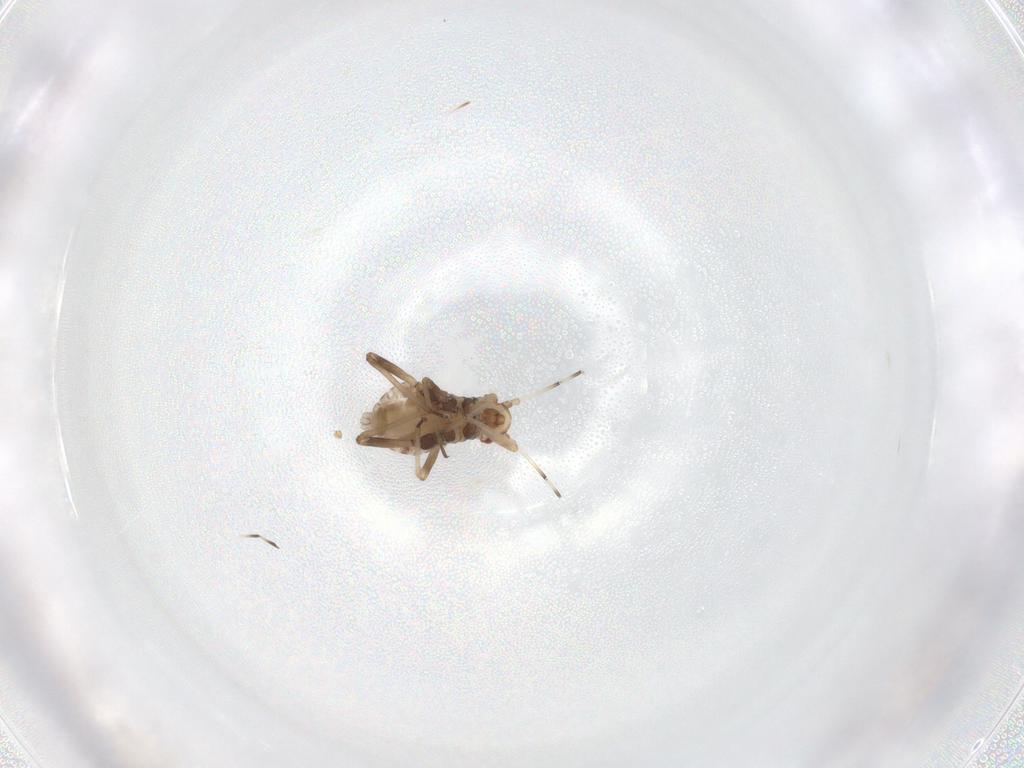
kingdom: Animalia
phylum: Arthropoda
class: Insecta
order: Hemiptera
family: Aphididae
